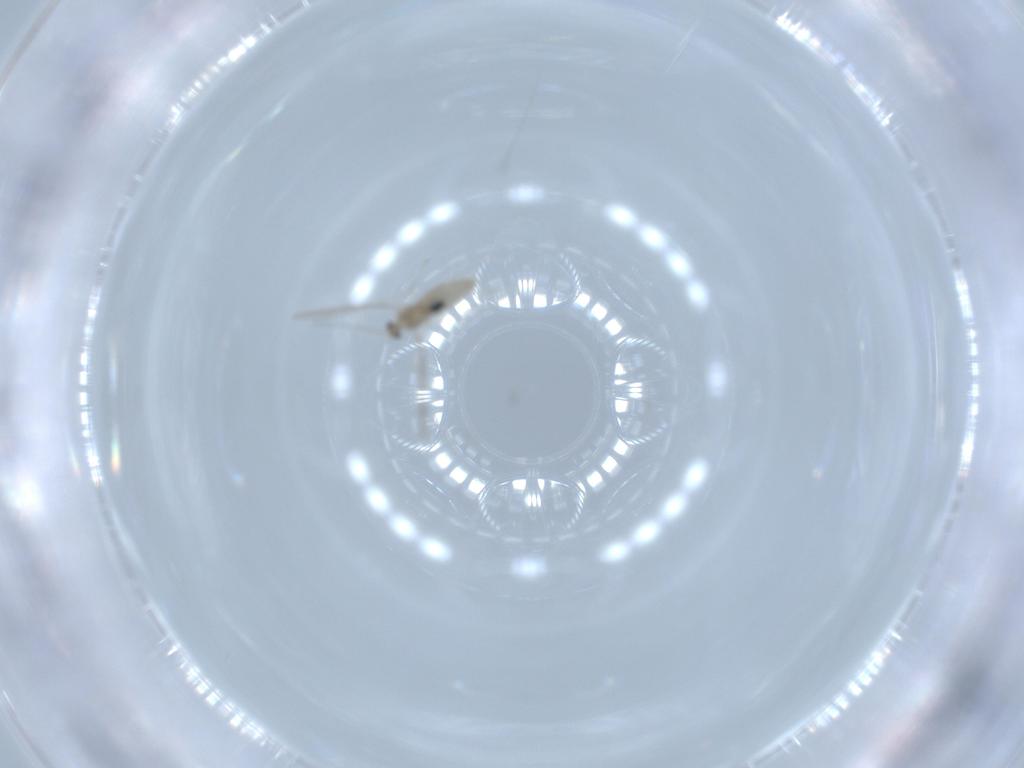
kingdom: Animalia
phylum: Arthropoda
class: Insecta
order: Diptera
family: Cecidomyiidae
